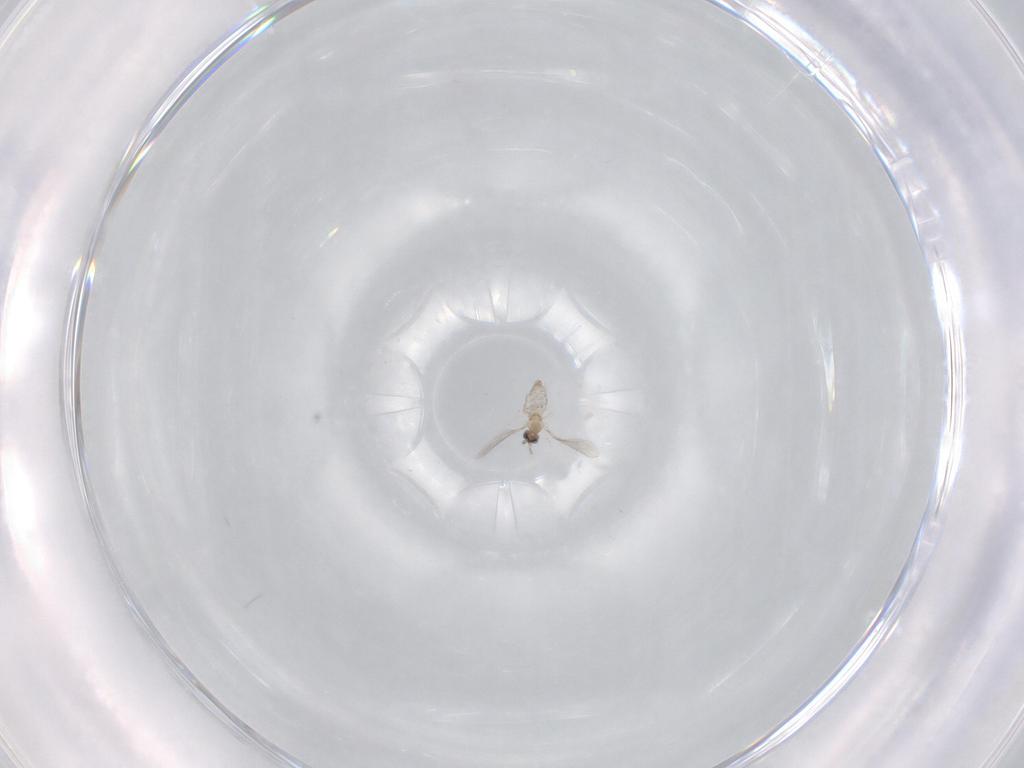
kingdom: Animalia
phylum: Arthropoda
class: Insecta
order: Diptera
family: Cecidomyiidae
